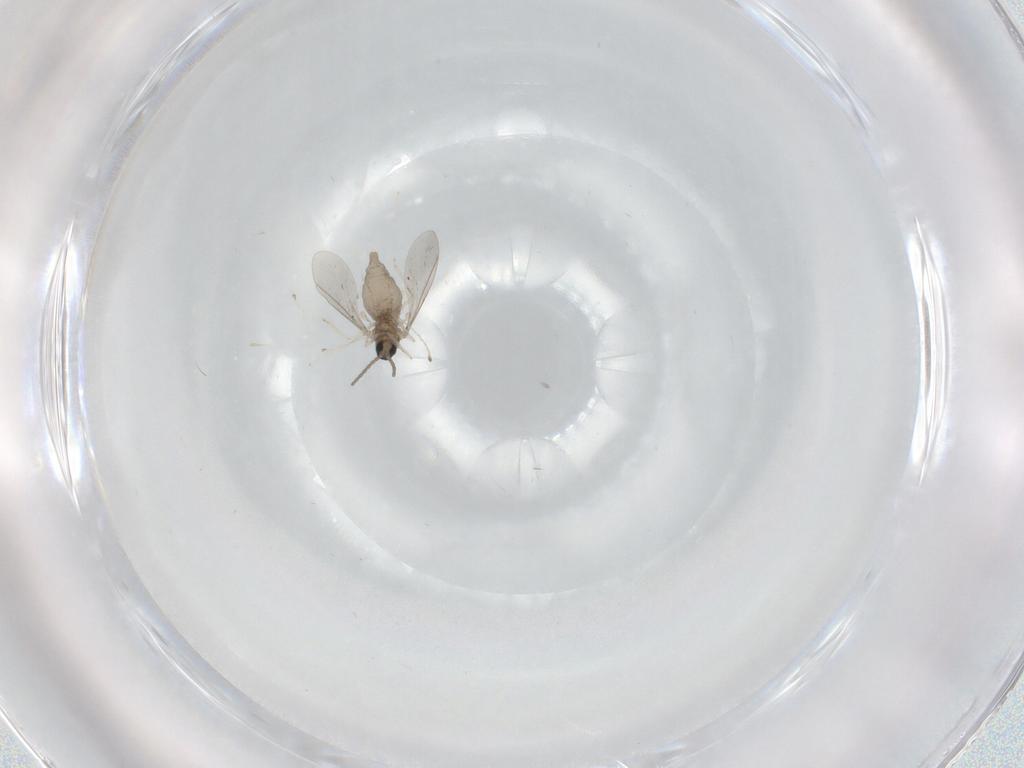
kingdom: Animalia
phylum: Arthropoda
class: Insecta
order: Diptera
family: Cecidomyiidae
